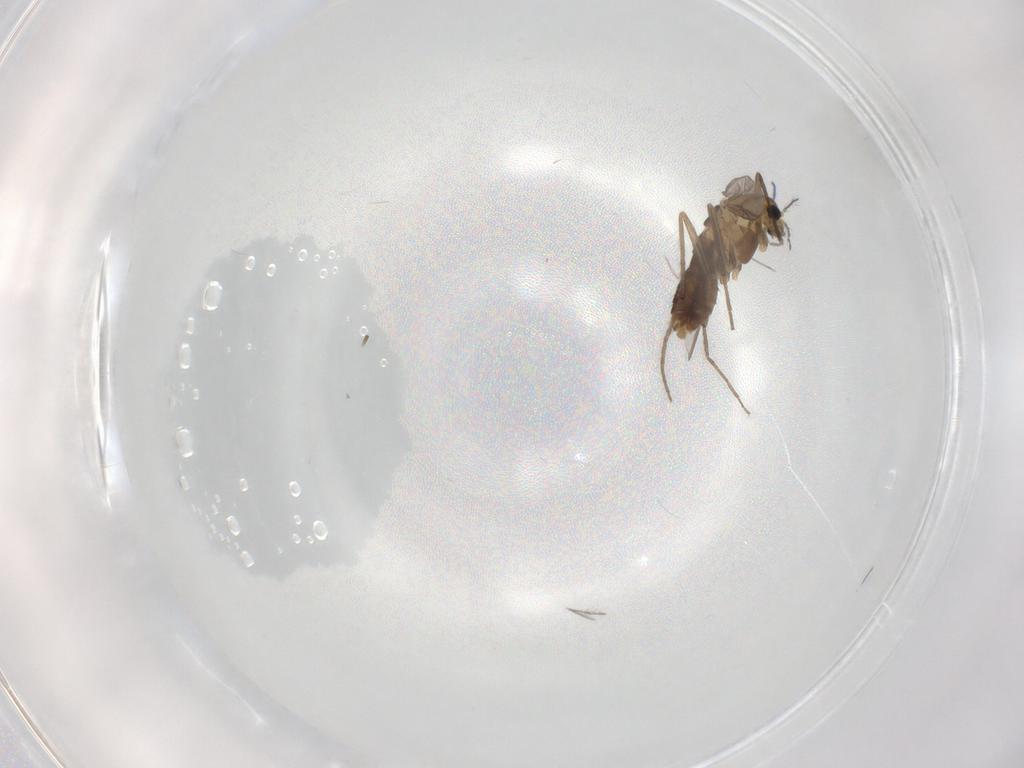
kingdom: Animalia
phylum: Arthropoda
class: Insecta
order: Diptera
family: Chironomidae
